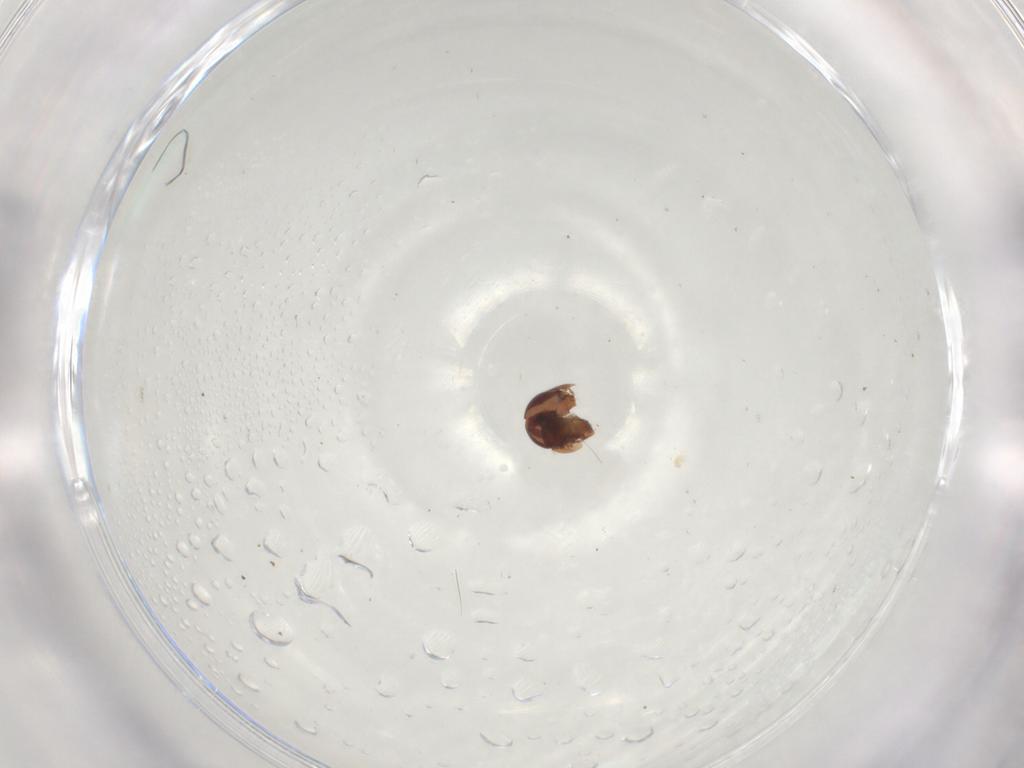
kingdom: Animalia
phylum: Arthropoda
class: Arachnida
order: Sarcoptiformes
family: Galumnidae
